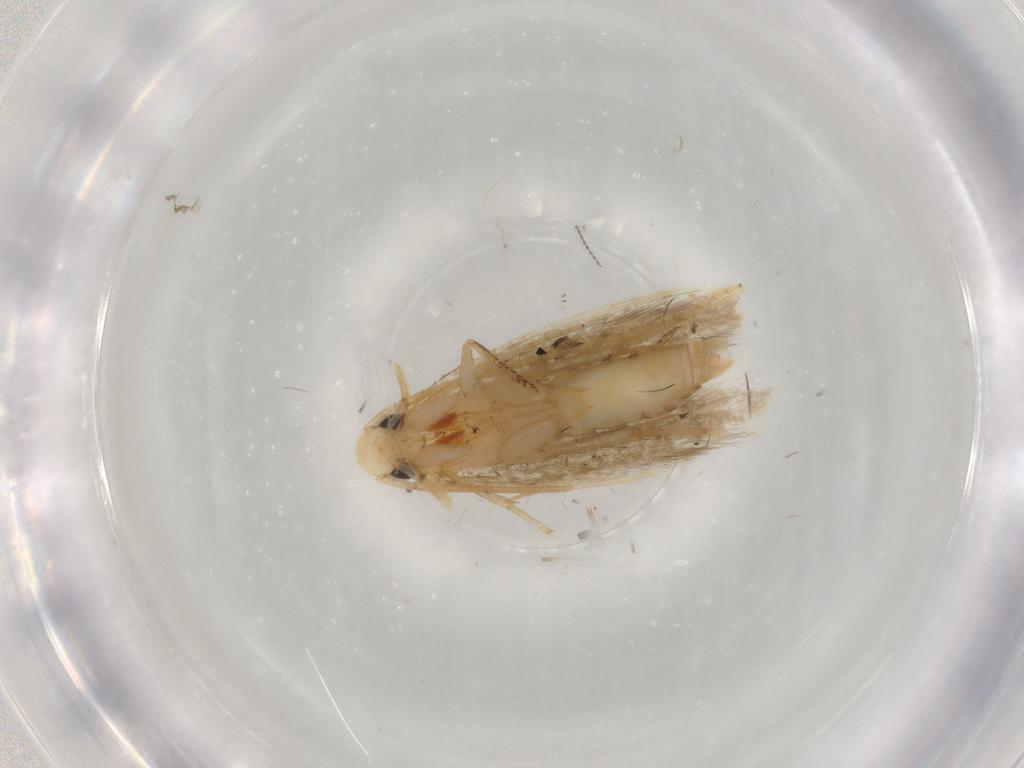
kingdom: Animalia
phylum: Arthropoda
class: Insecta
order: Lepidoptera
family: Tineidae
